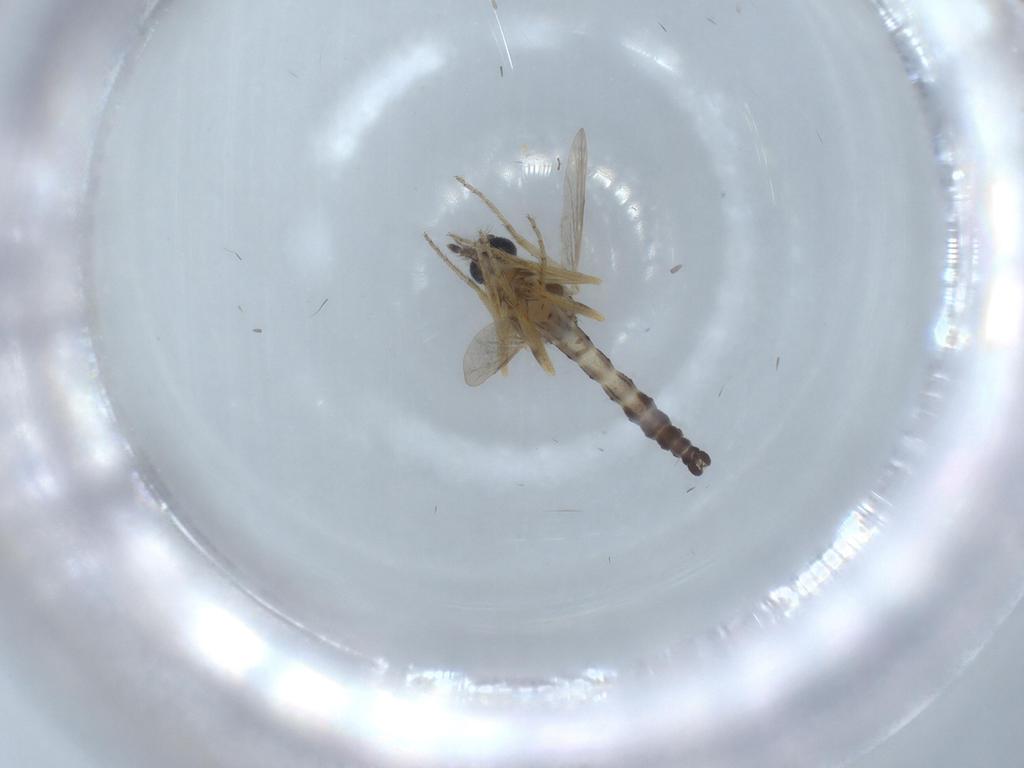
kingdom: Animalia
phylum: Arthropoda
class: Insecta
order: Diptera
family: Ceratopogonidae
